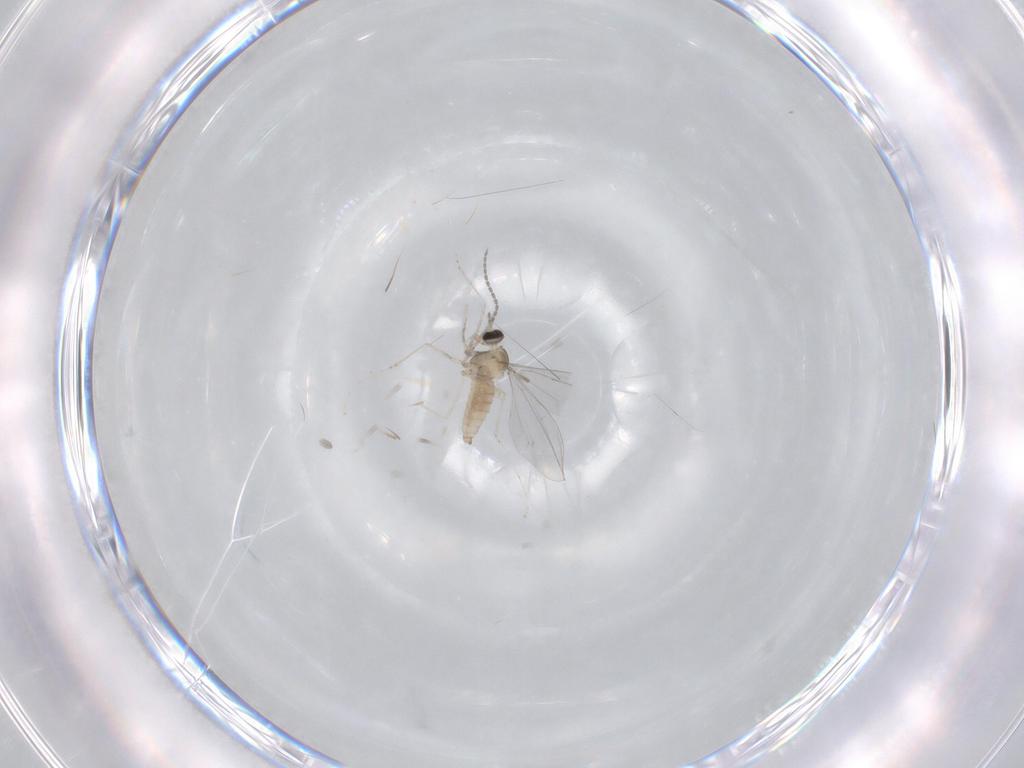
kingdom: Animalia
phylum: Arthropoda
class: Insecta
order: Diptera
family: Cecidomyiidae
